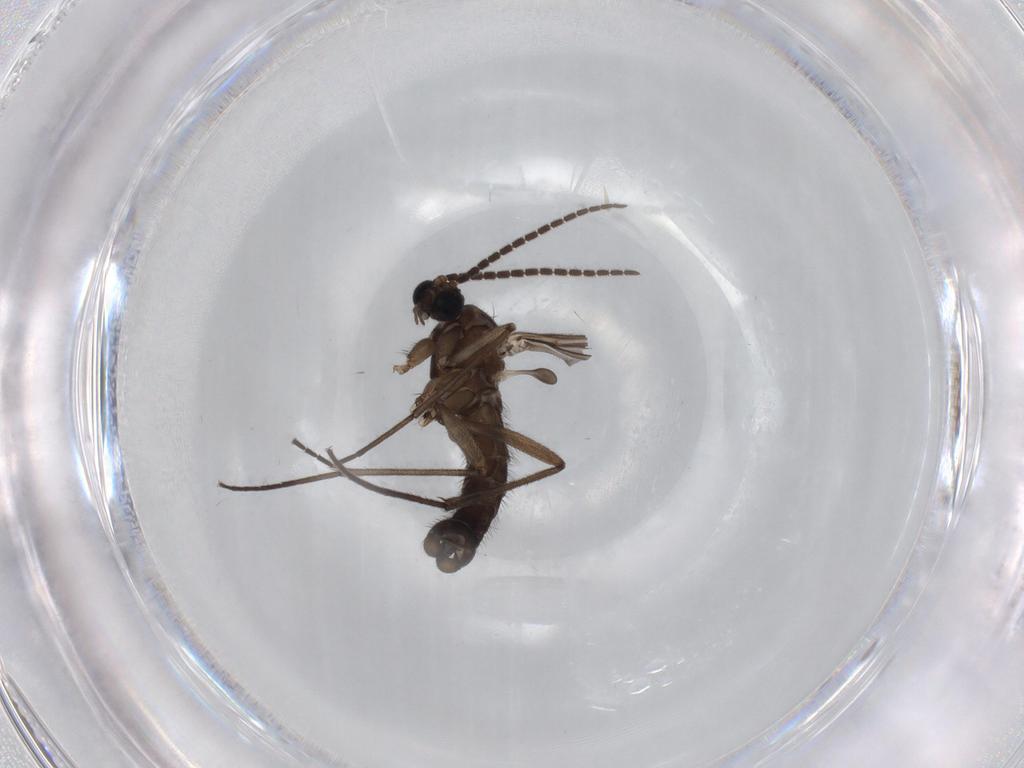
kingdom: Animalia
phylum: Arthropoda
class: Insecta
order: Diptera
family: Sciaridae
